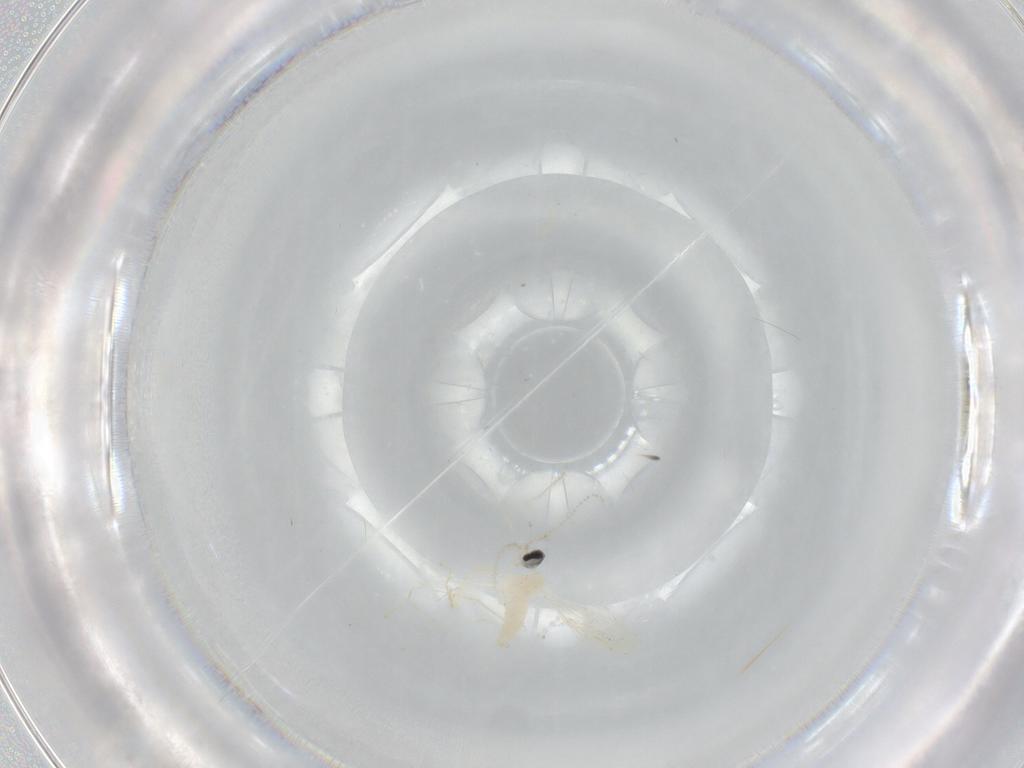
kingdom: Animalia
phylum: Arthropoda
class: Insecta
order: Diptera
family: Cecidomyiidae
